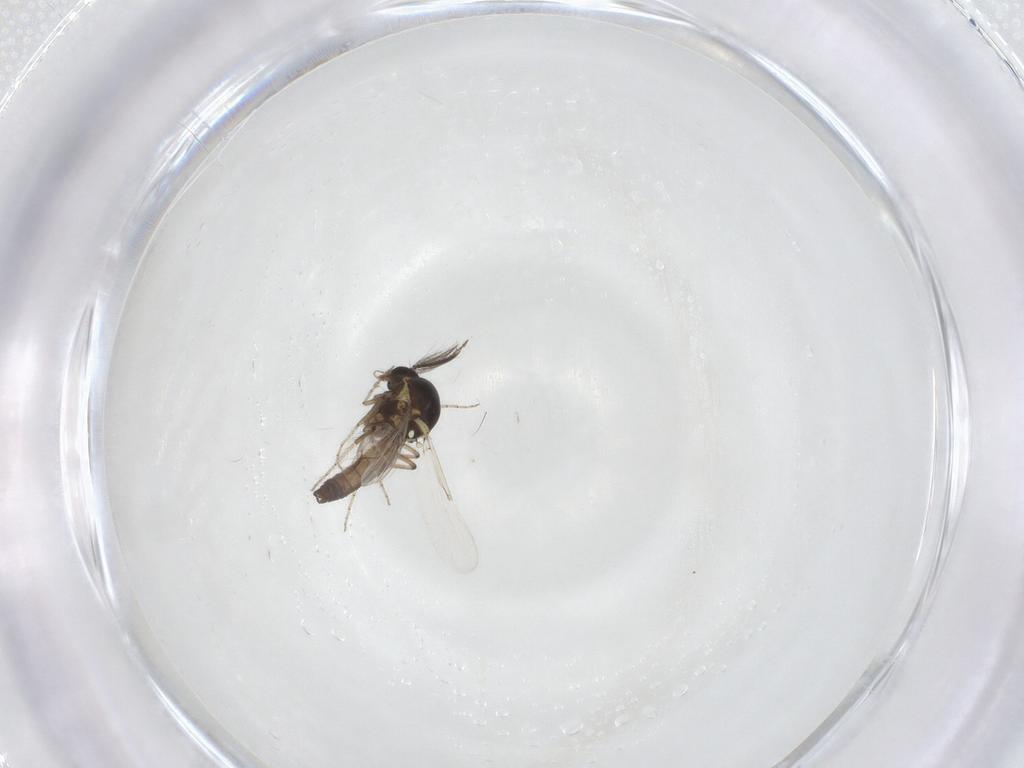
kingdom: Animalia
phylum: Arthropoda
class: Insecta
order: Diptera
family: Ceratopogonidae
